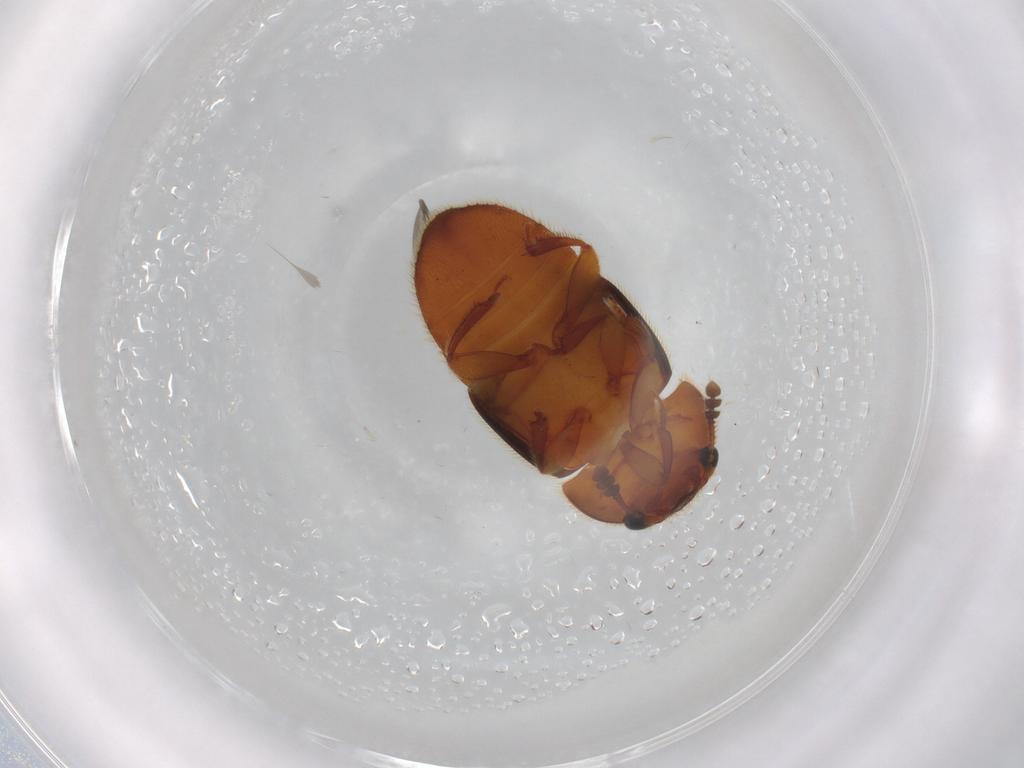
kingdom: Animalia
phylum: Arthropoda
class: Insecta
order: Coleoptera
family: Nitidulidae
